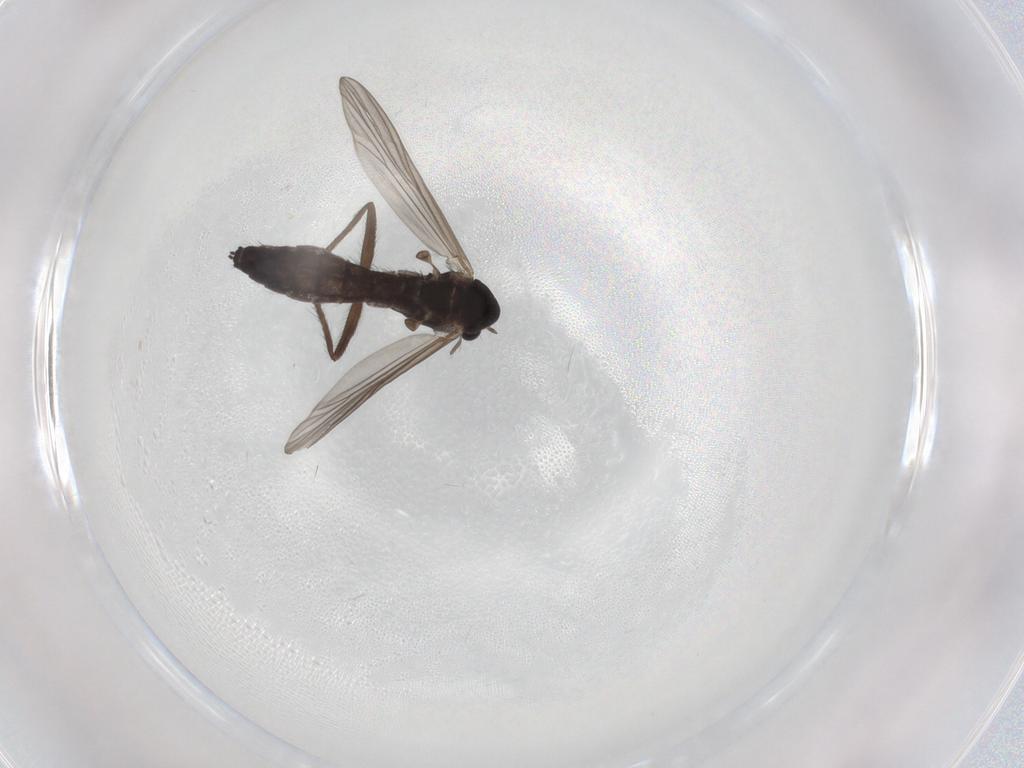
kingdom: Animalia
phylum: Arthropoda
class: Insecta
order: Diptera
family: Chironomidae
